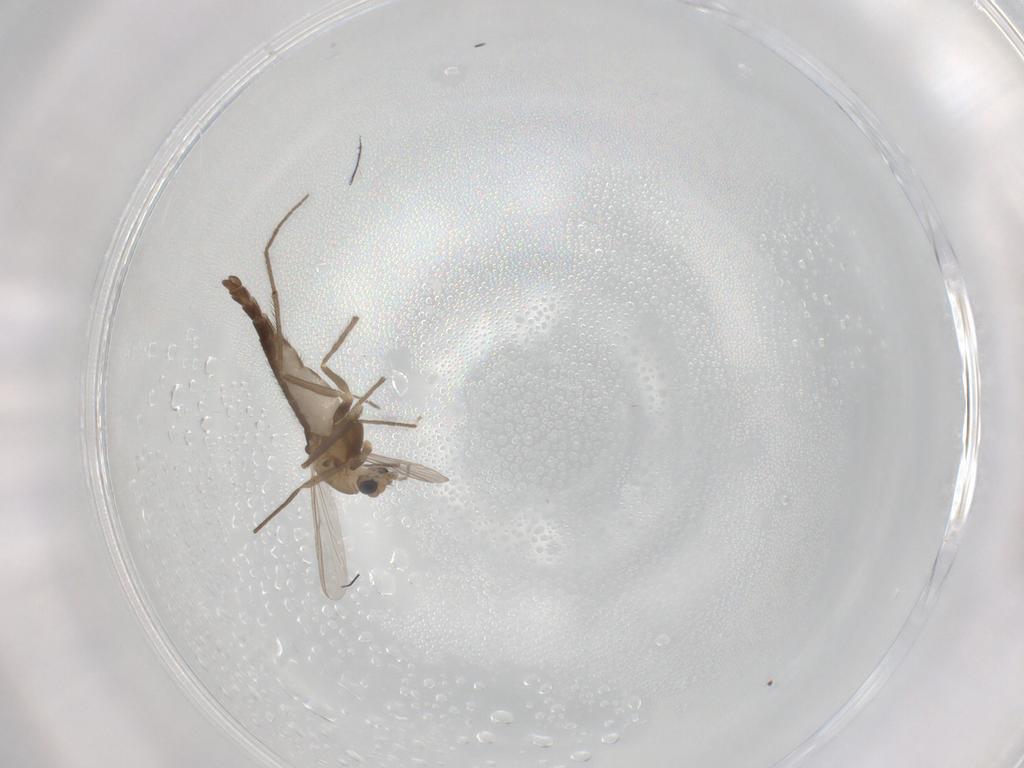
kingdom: Animalia
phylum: Arthropoda
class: Insecta
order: Diptera
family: Chironomidae
